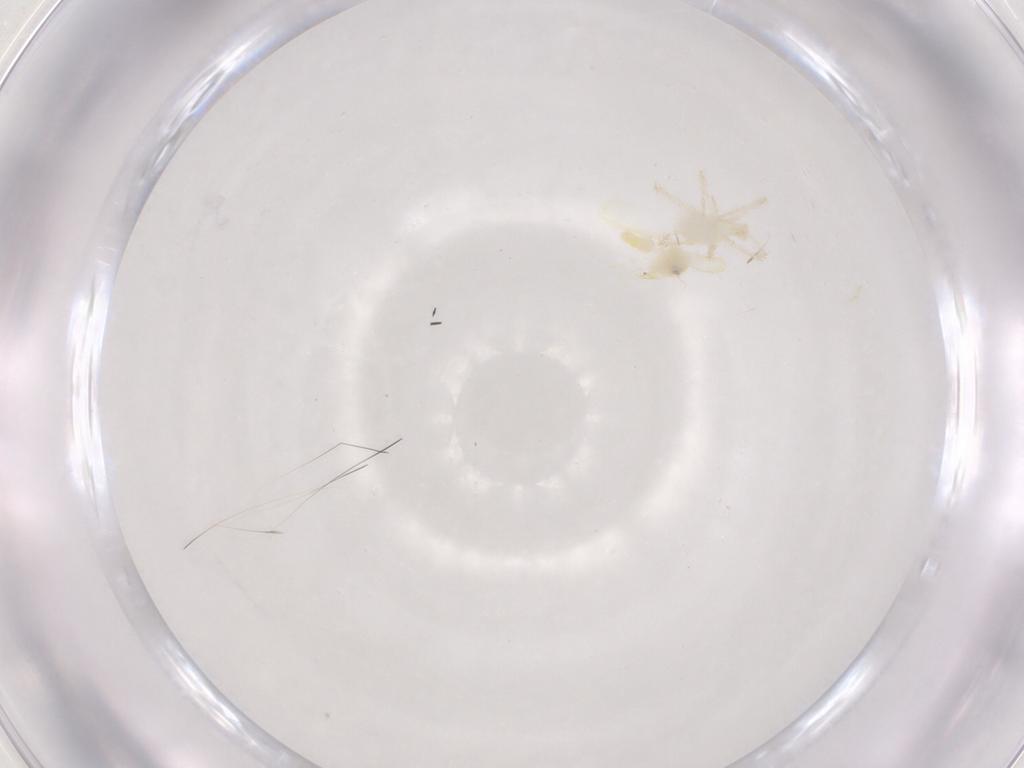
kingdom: Animalia
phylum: Arthropoda
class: Insecta
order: Hemiptera
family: Aleyrodidae
